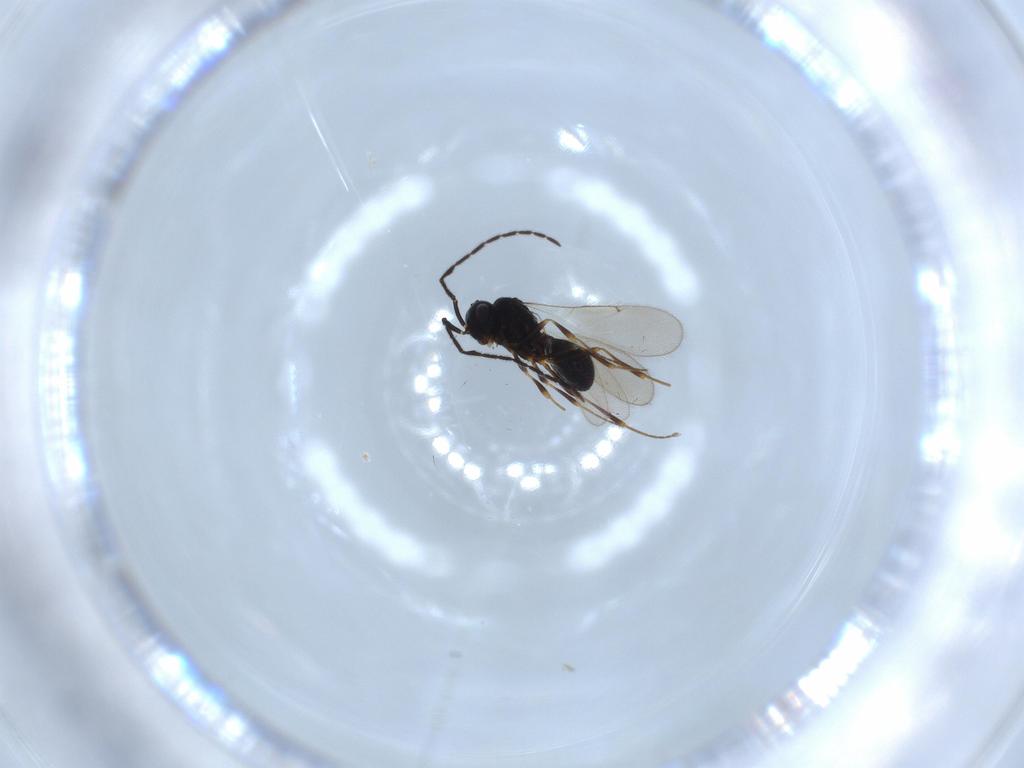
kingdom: Animalia
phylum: Arthropoda
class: Insecta
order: Hymenoptera
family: Scelionidae
